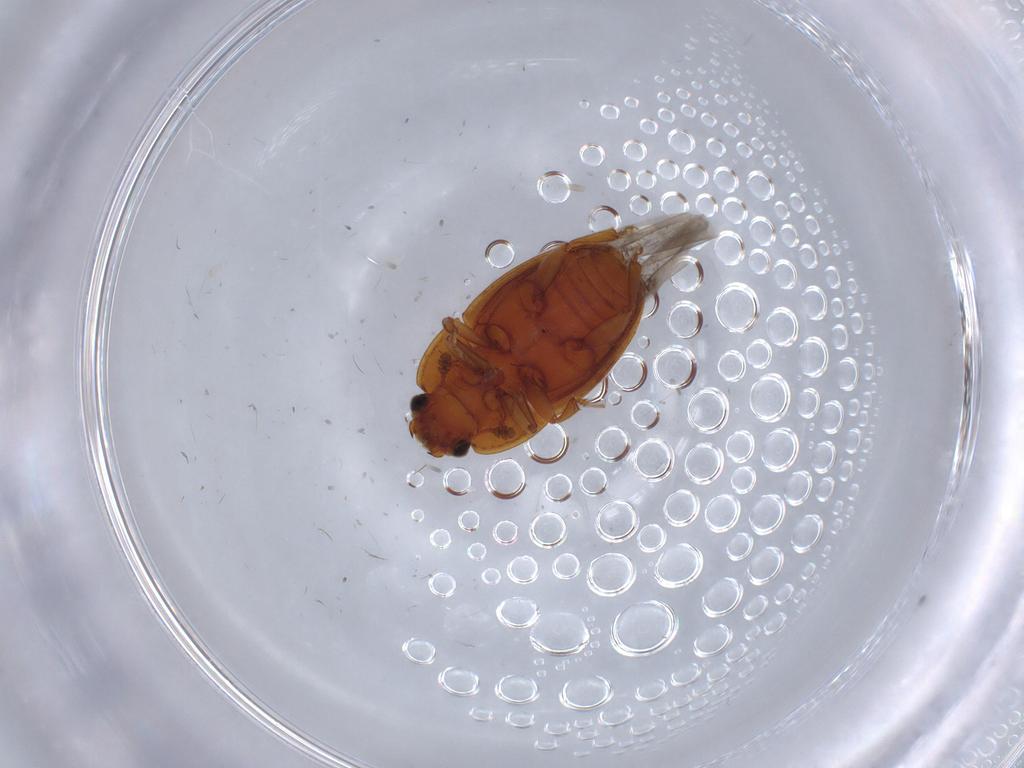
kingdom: Animalia
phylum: Arthropoda
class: Insecta
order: Coleoptera
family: Nitidulidae
